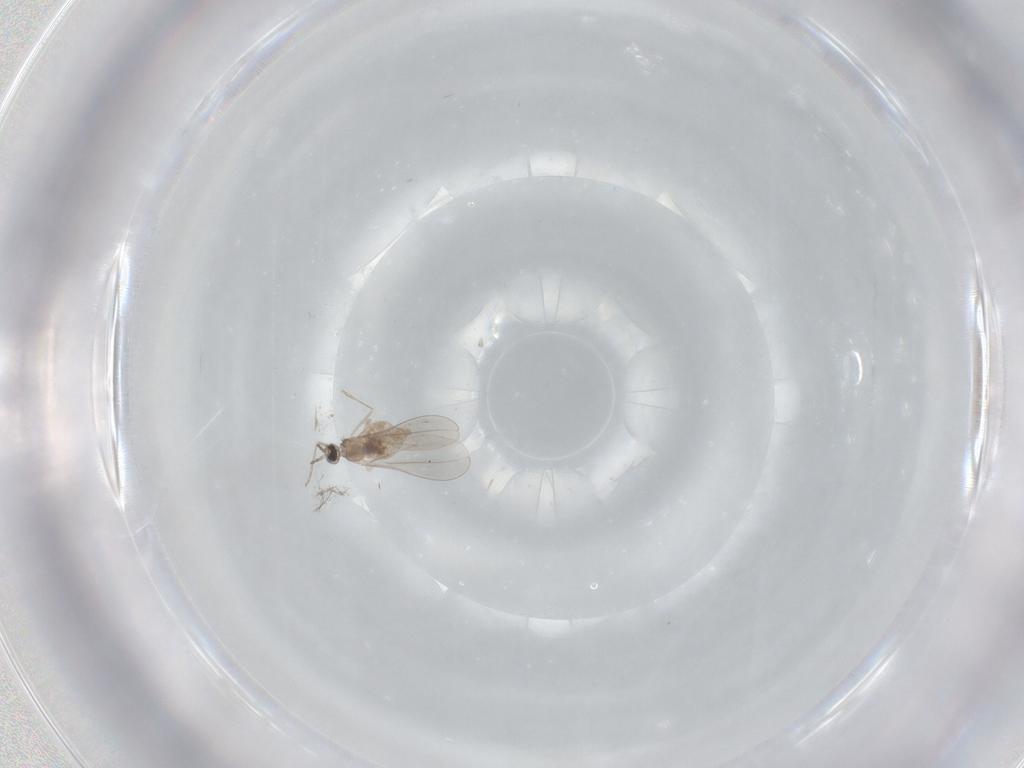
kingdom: Animalia
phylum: Arthropoda
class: Insecta
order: Diptera
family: Chironomidae
